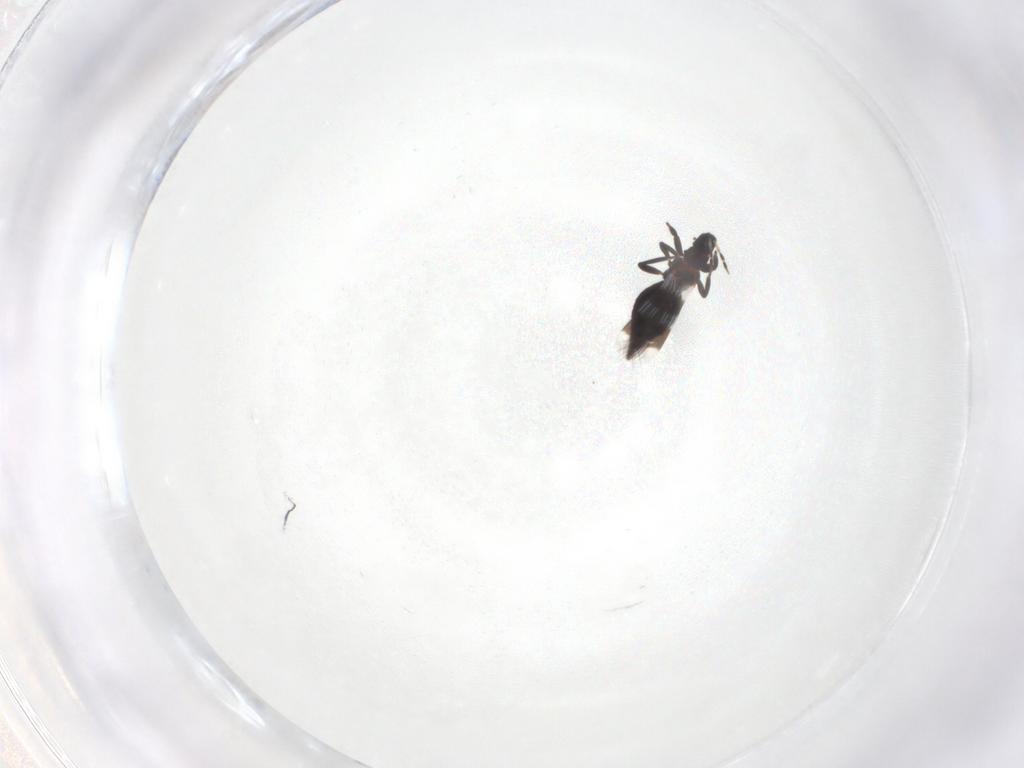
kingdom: Animalia
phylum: Arthropoda
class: Insecta
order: Thysanoptera
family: Aeolothripidae
